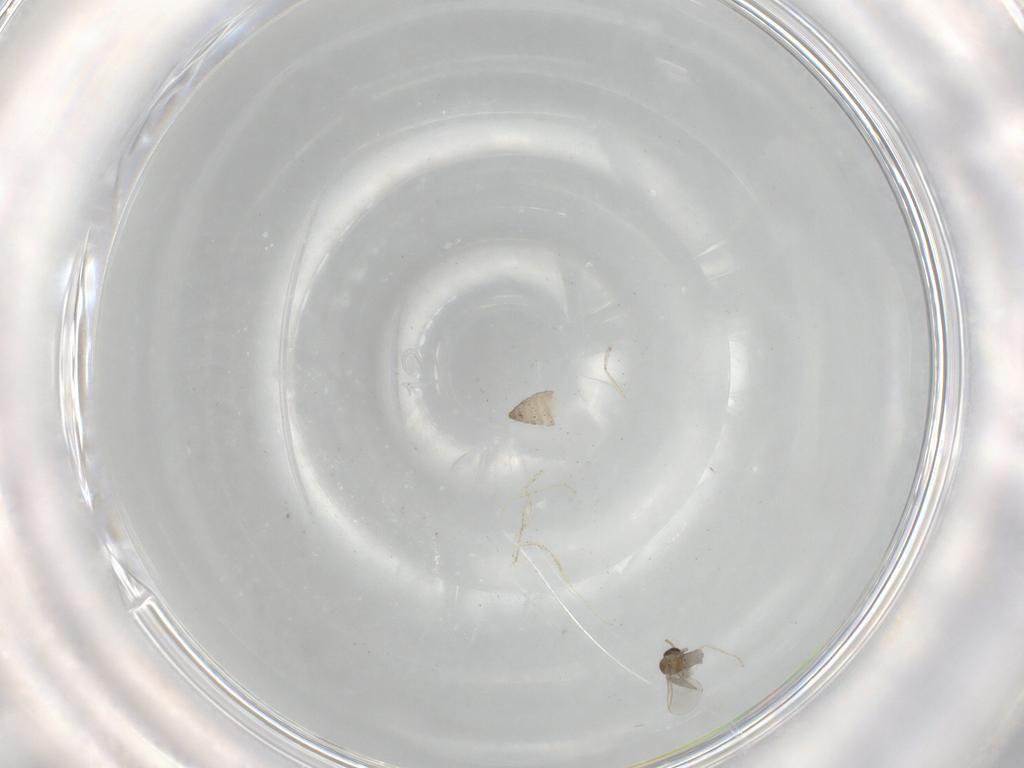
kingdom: Animalia
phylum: Arthropoda
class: Insecta
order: Diptera
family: Cecidomyiidae
